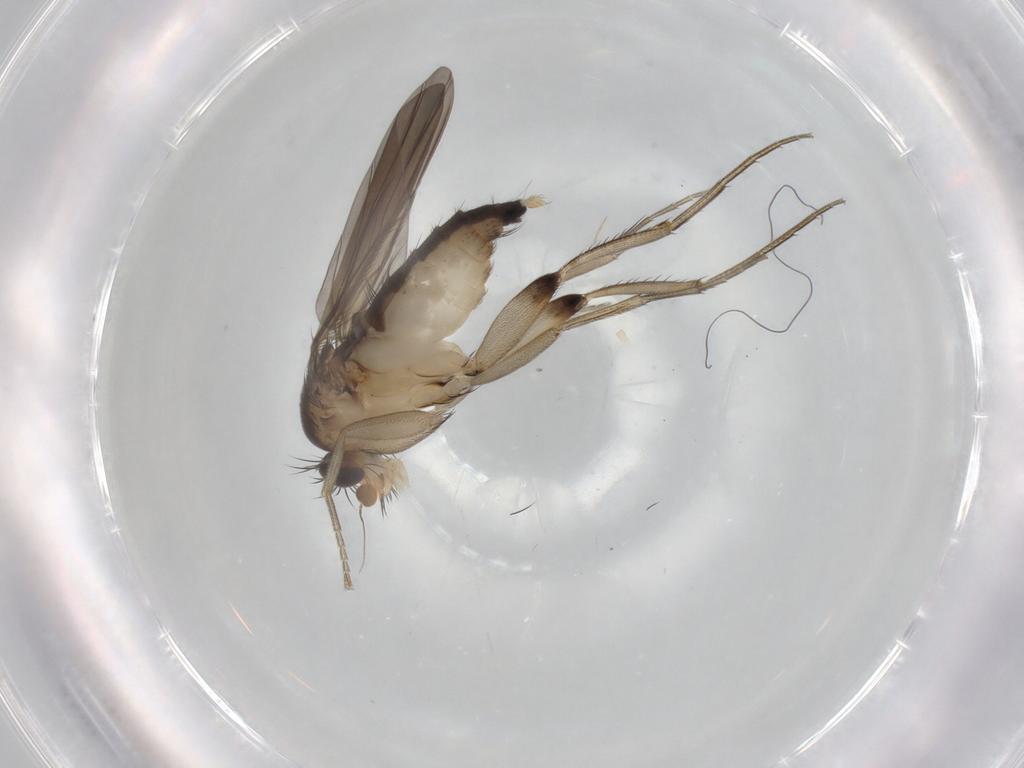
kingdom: Animalia
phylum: Arthropoda
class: Insecta
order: Diptera
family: Phoridae
